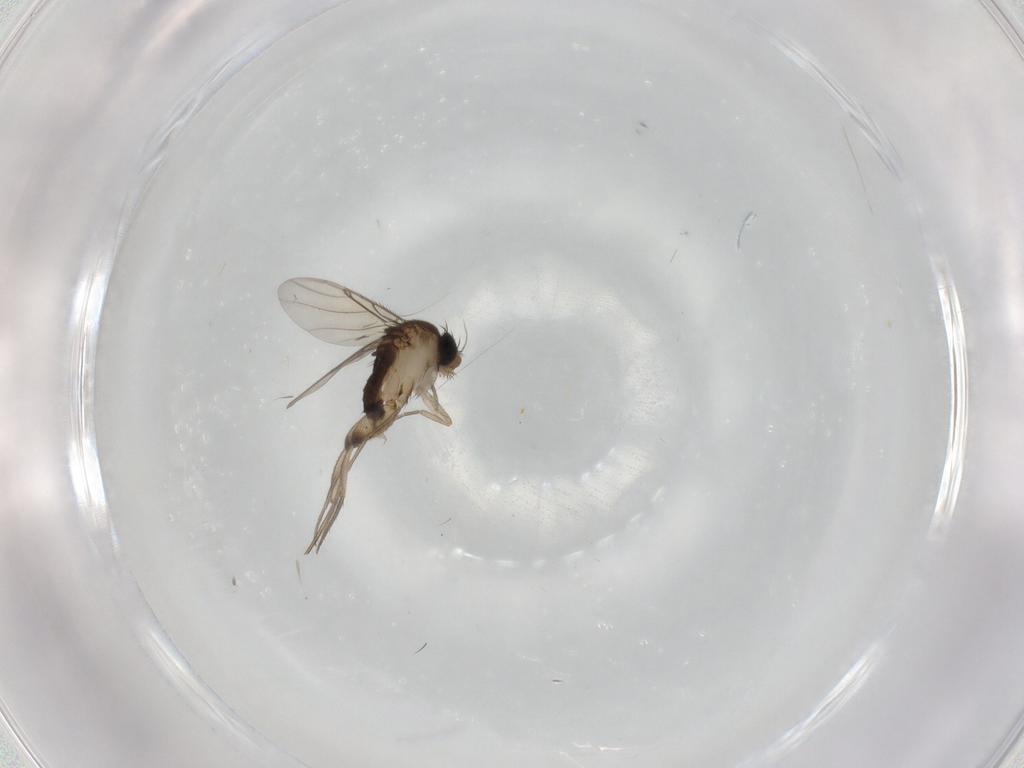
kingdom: Animalia
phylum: Arthropoda
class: Insecta
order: Diptera
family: Phoridae
